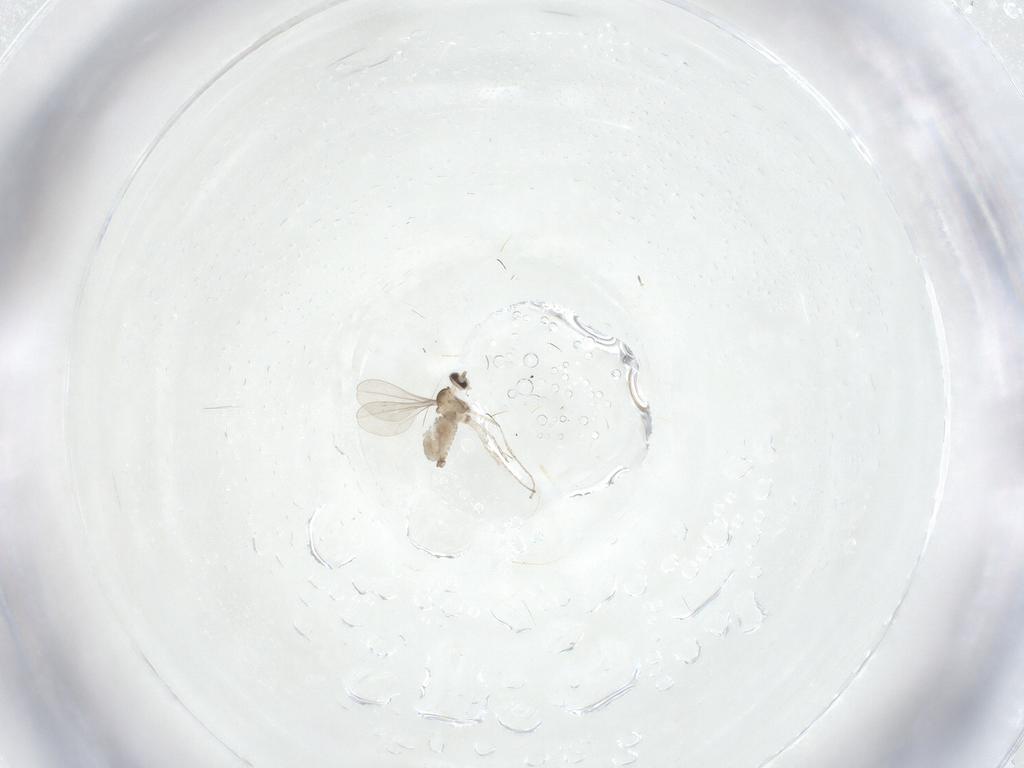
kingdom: Animalia
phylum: Arthropoda
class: Insecta
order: Diptera
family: Cecidomyiidae
